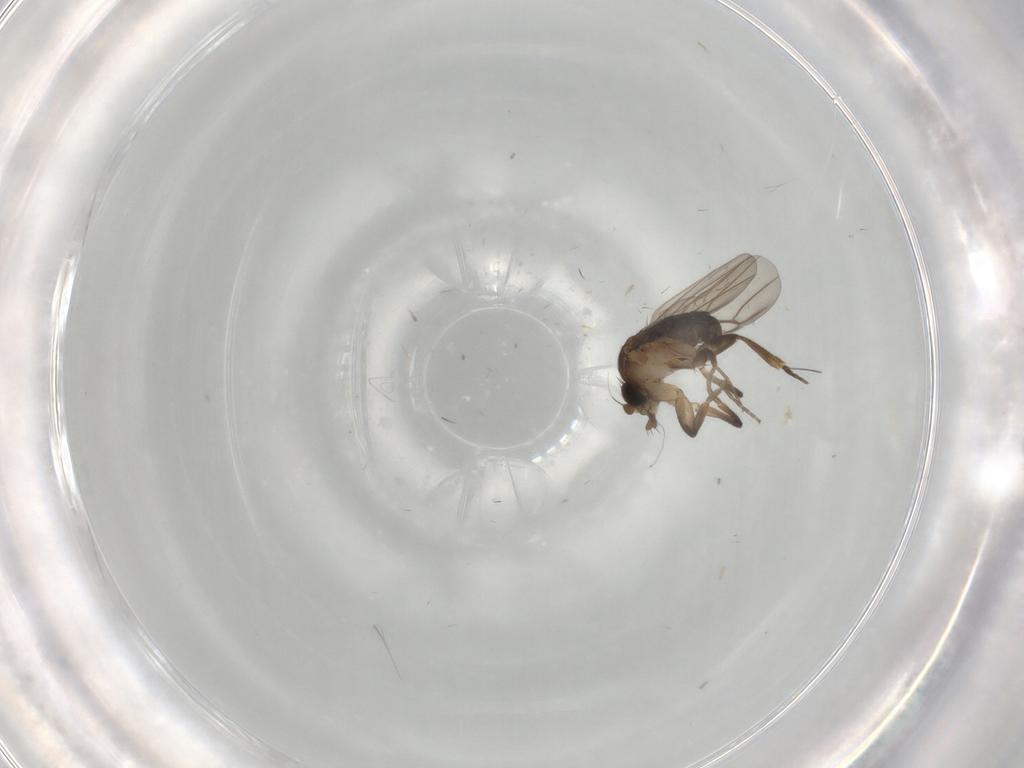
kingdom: Animalia
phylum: Arthropoda
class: Insecta
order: Diptera
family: Phoridae
